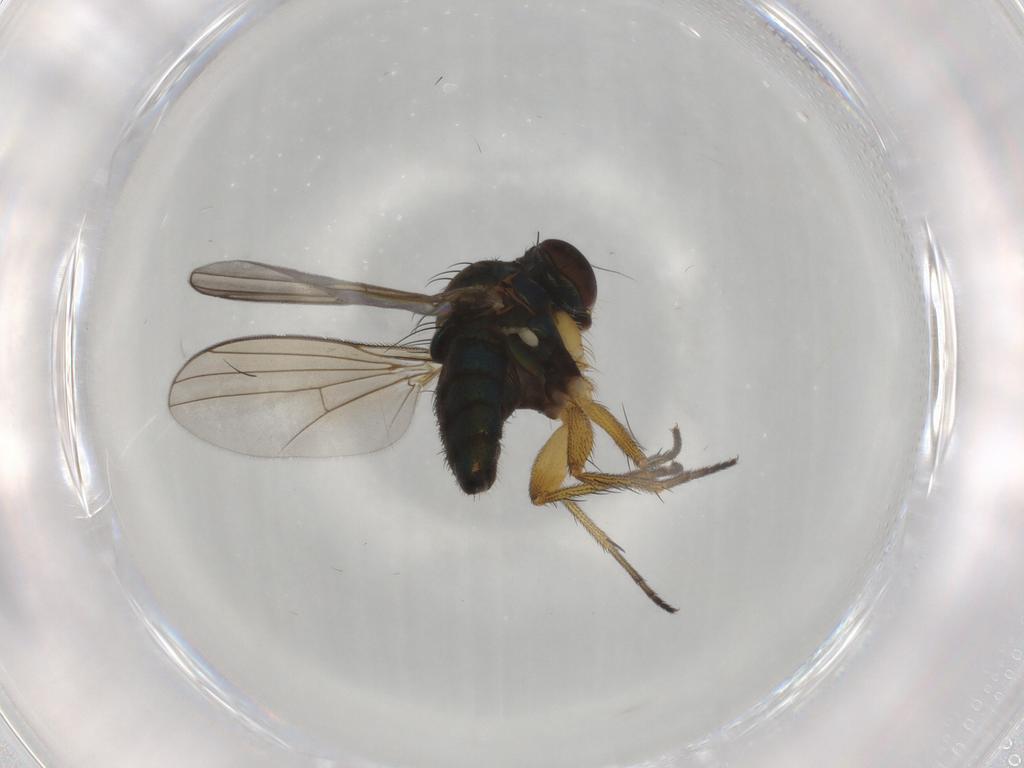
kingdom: Animalia
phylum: Arthropoda
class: Insecta
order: Diptera
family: Dolichopodidae
